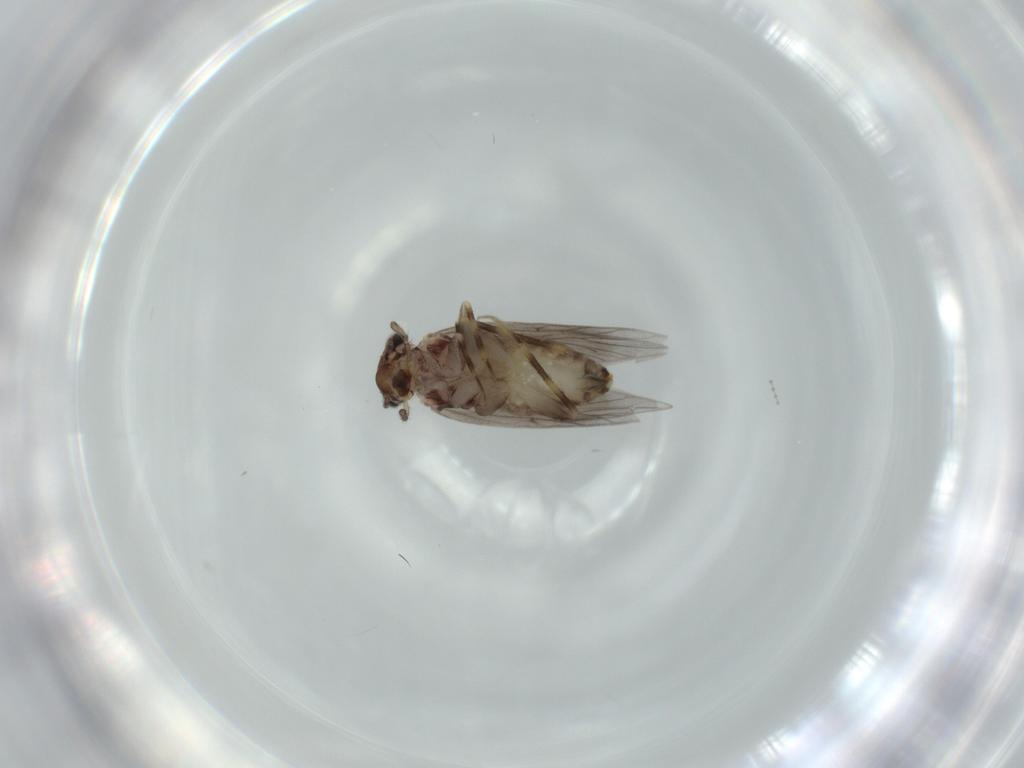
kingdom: Animalia
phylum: Arthropoda
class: Insecta
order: Psocodea
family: Lepidopsocidae
